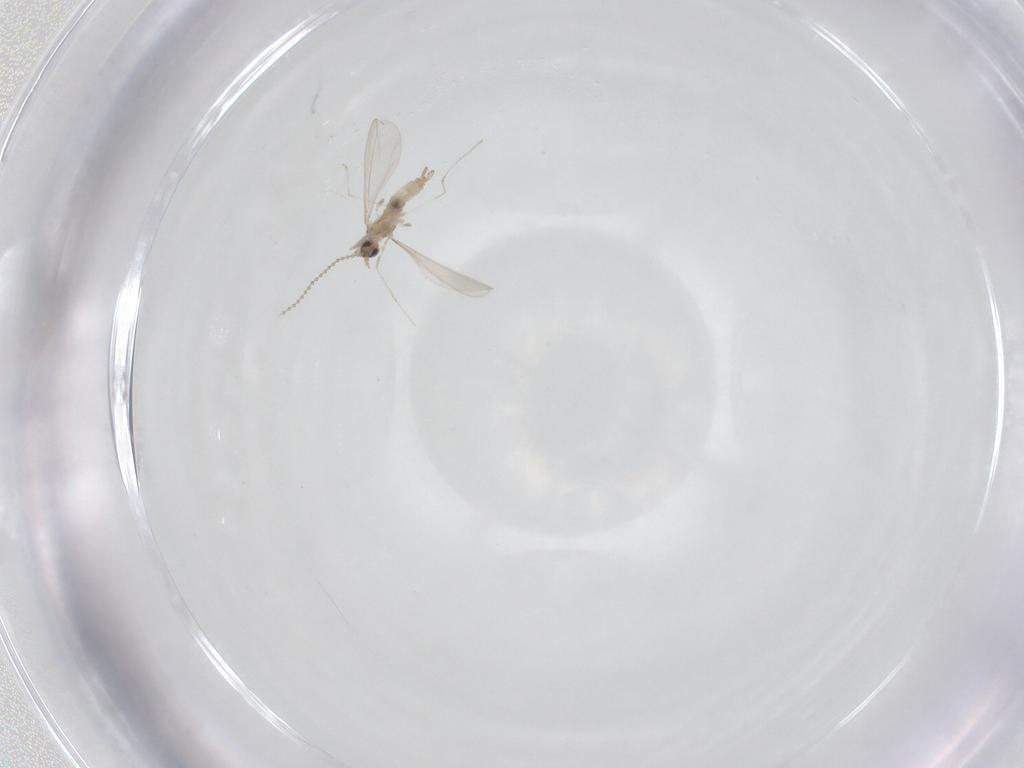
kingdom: Animalia
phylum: Arthropoda
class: Insecta
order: Diptera
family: Cecidomyiidae
